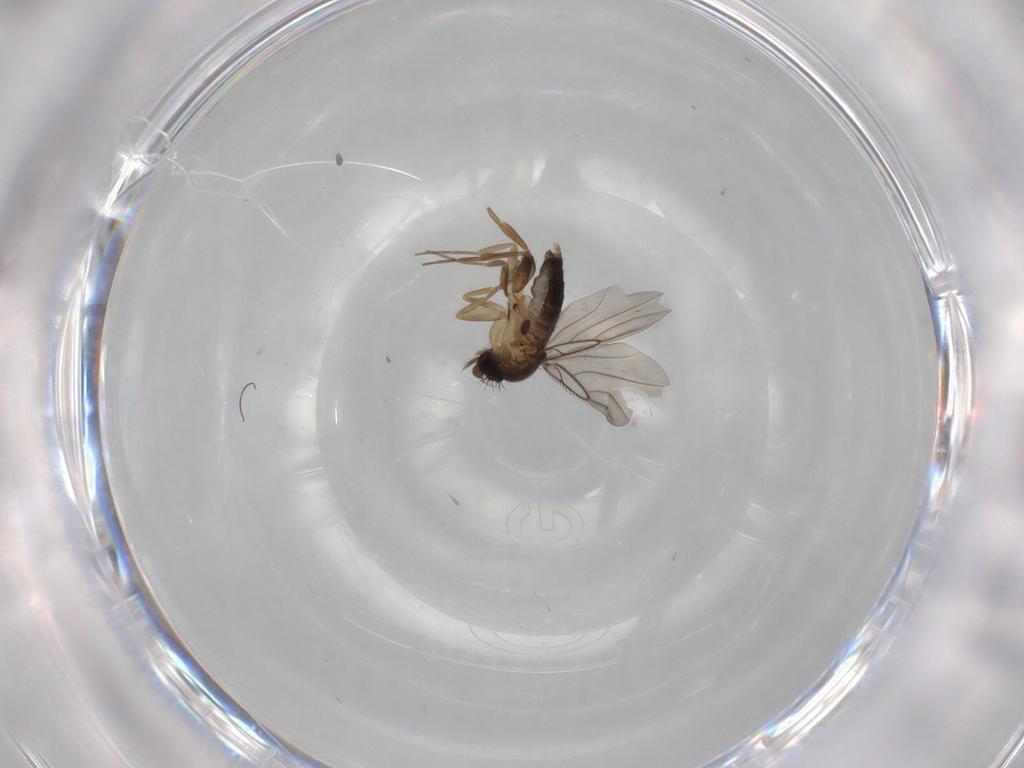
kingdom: Animalia
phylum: Arthropoda
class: Insecta
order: Diptera
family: Phoridae
